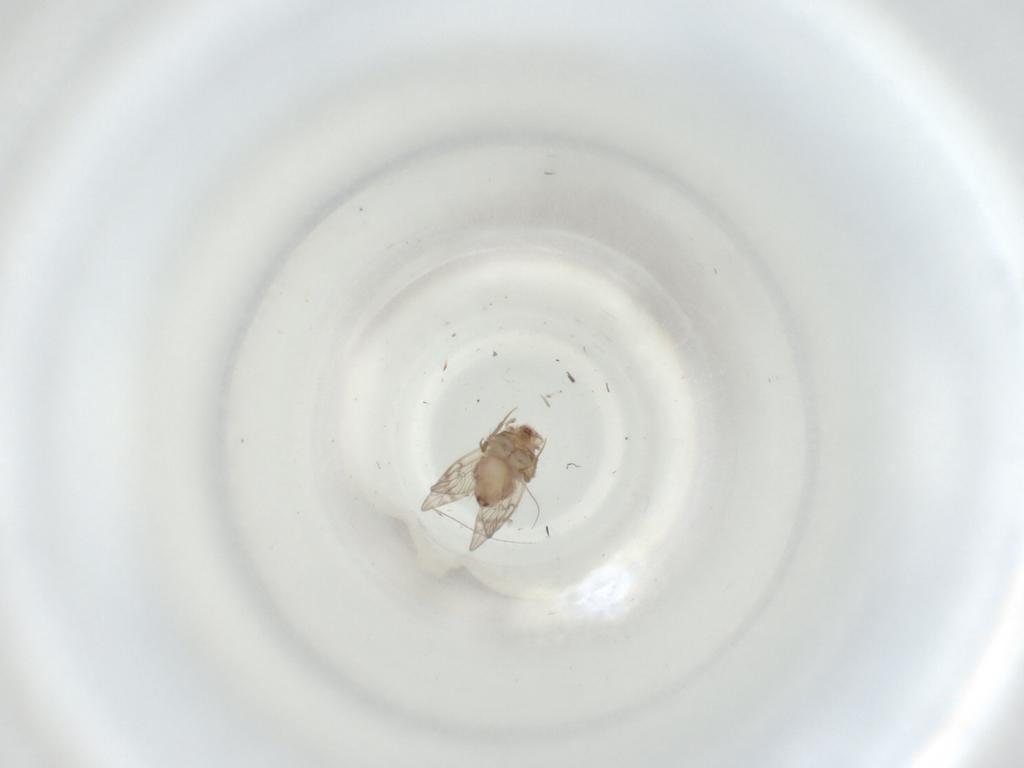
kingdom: Animalia
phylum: Arthropoda
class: Insecta
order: Psocodea
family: Lepidopsocidae
